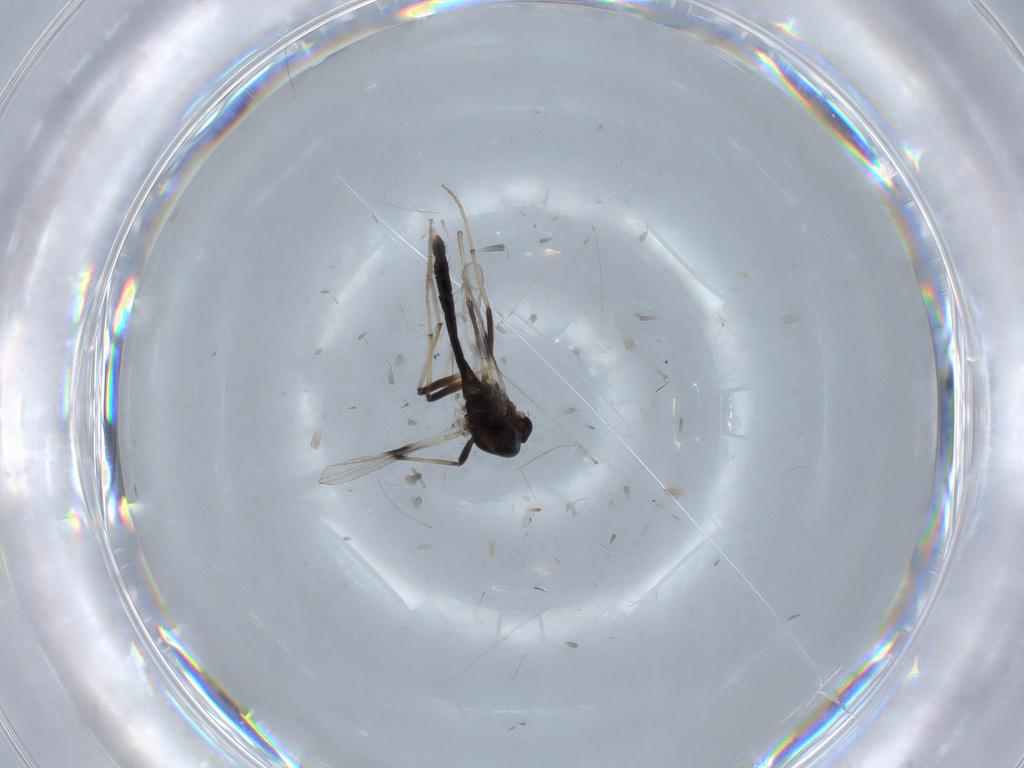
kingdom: Animalia
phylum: Arthropoda
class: Insecta
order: Diptera
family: Chironomidae
